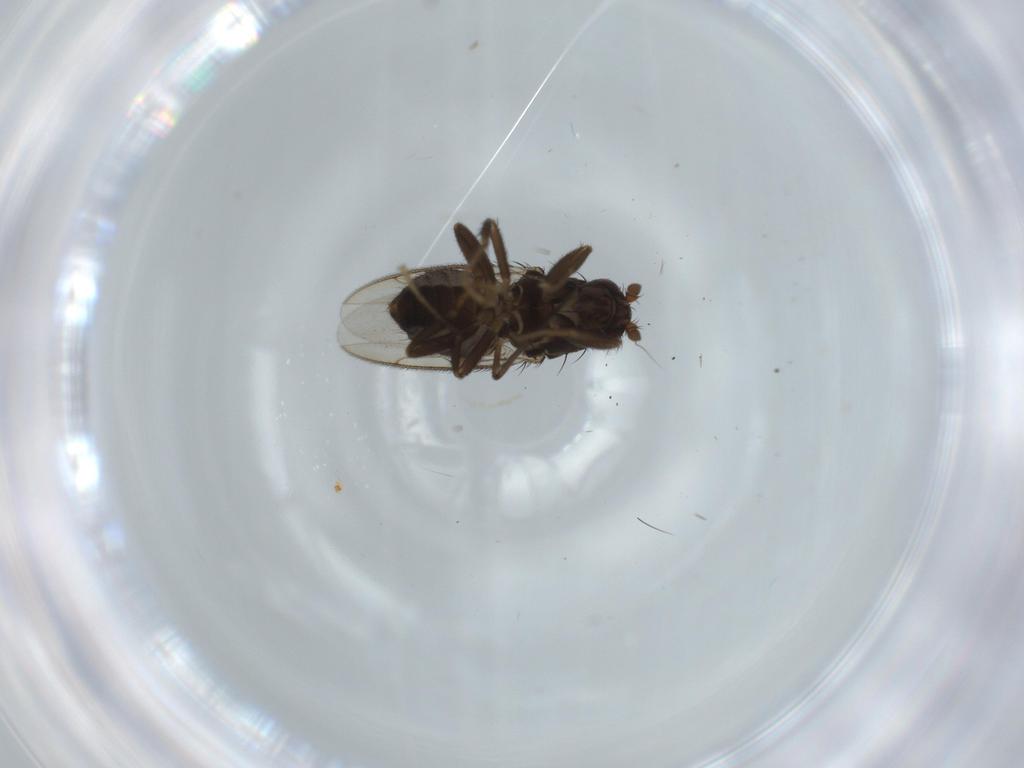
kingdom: Animalia
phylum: Arthropoda
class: Insecta
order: Diptera
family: Sphaeroceridae
